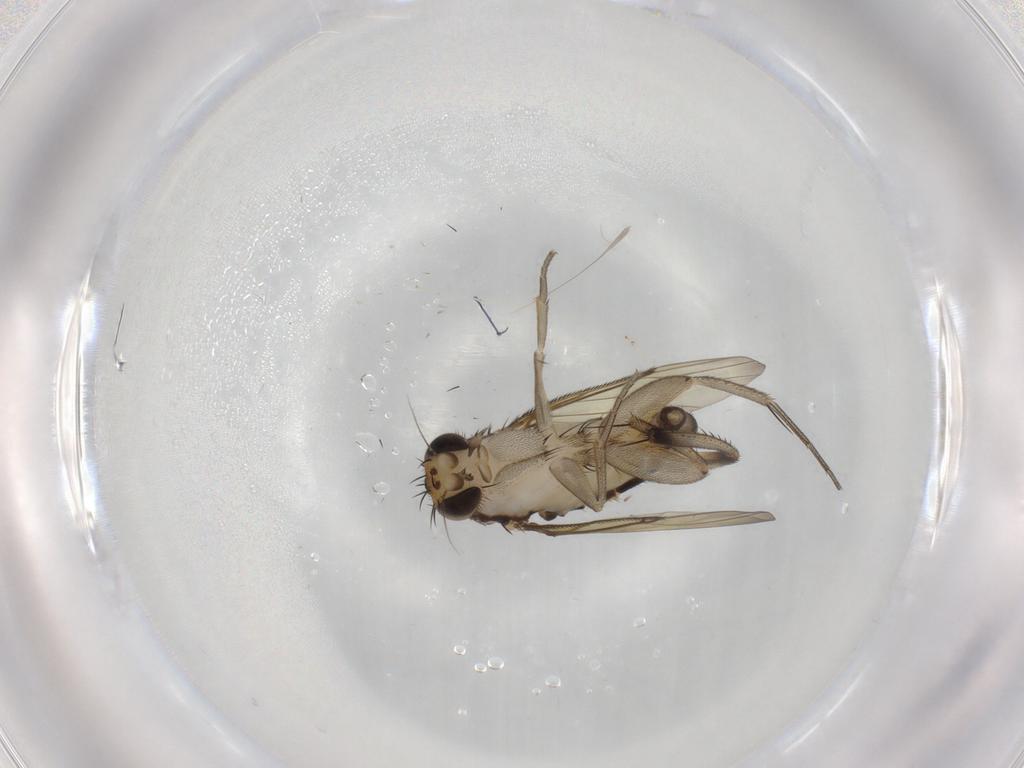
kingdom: Animalia
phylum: Arthropoda
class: Insecta
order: Diptera
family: Phoridae
